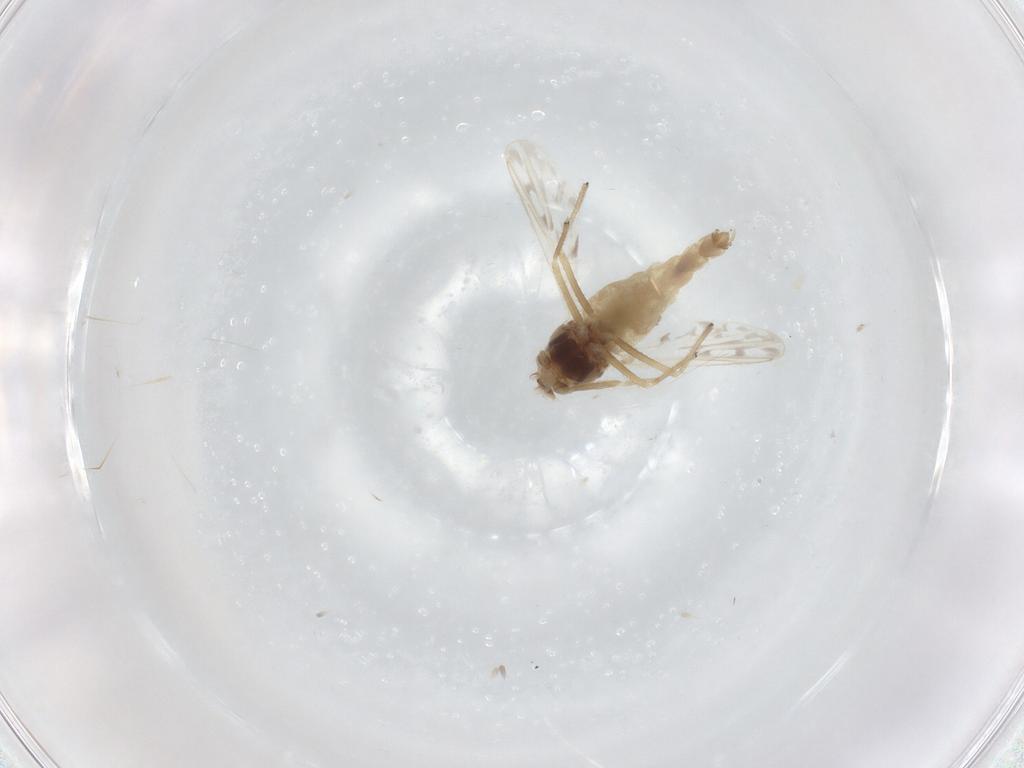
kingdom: Animalia
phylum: Arthropoda
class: Insecta
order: Diptera
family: Chironomidae
